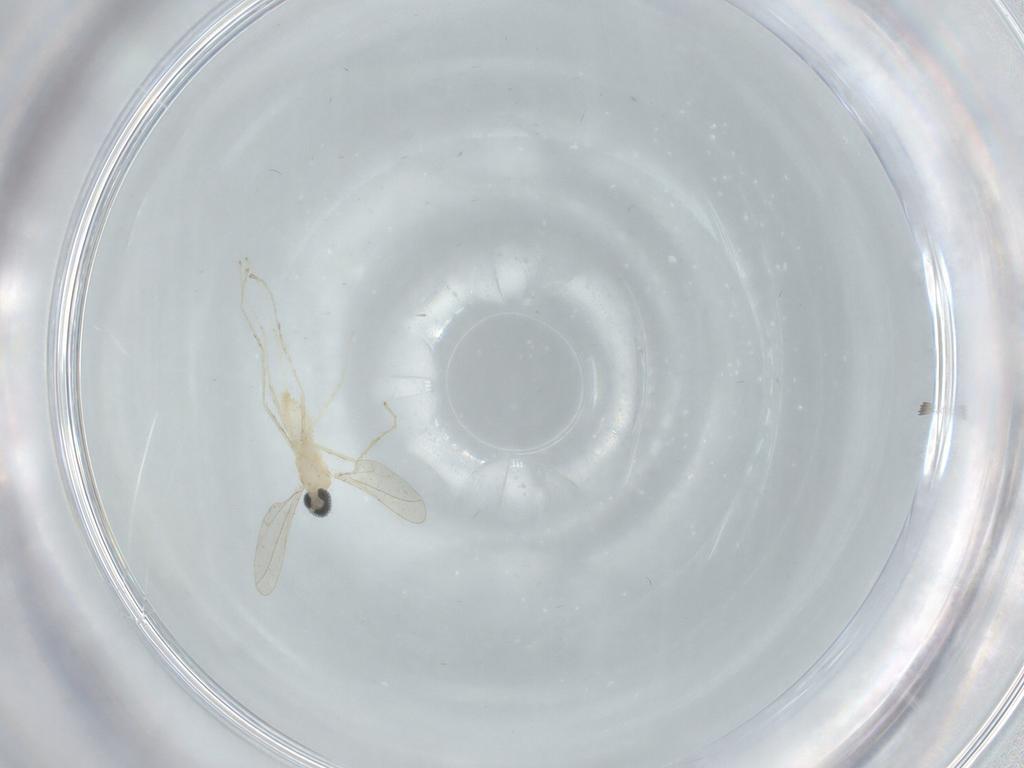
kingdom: Animalia
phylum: Arthropoda
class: Insecta
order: Diptera
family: Cecidomyiidae
